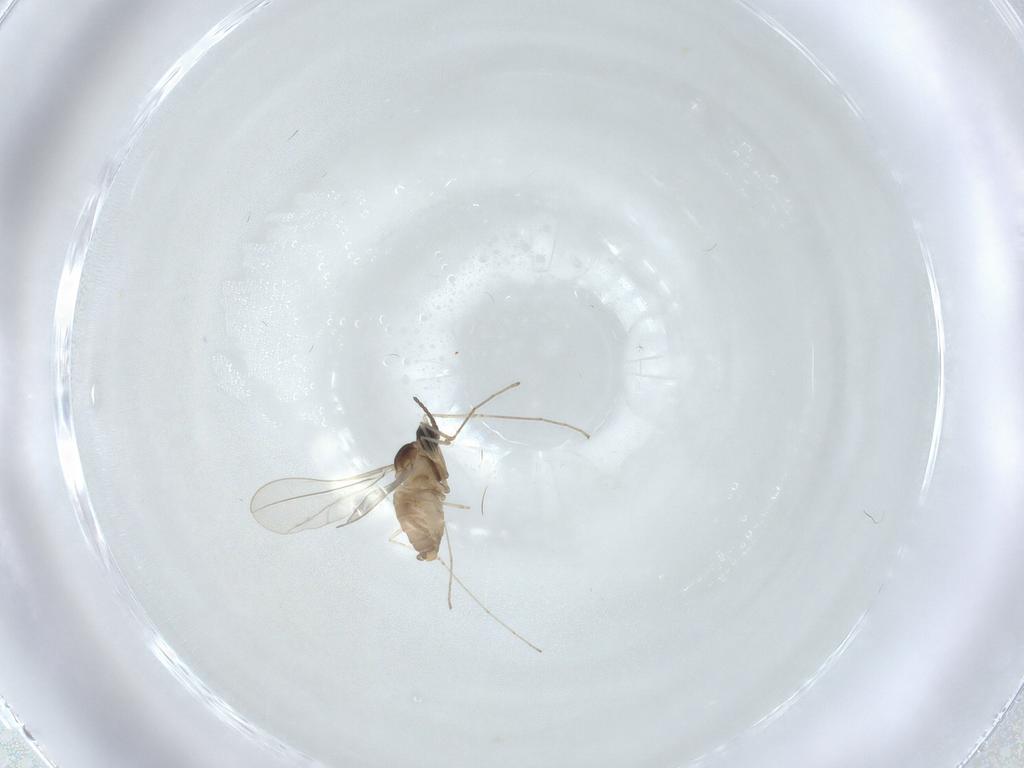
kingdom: Animalia
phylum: Arthropoda
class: Insecta
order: Diptera
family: Cecidomyiidae
